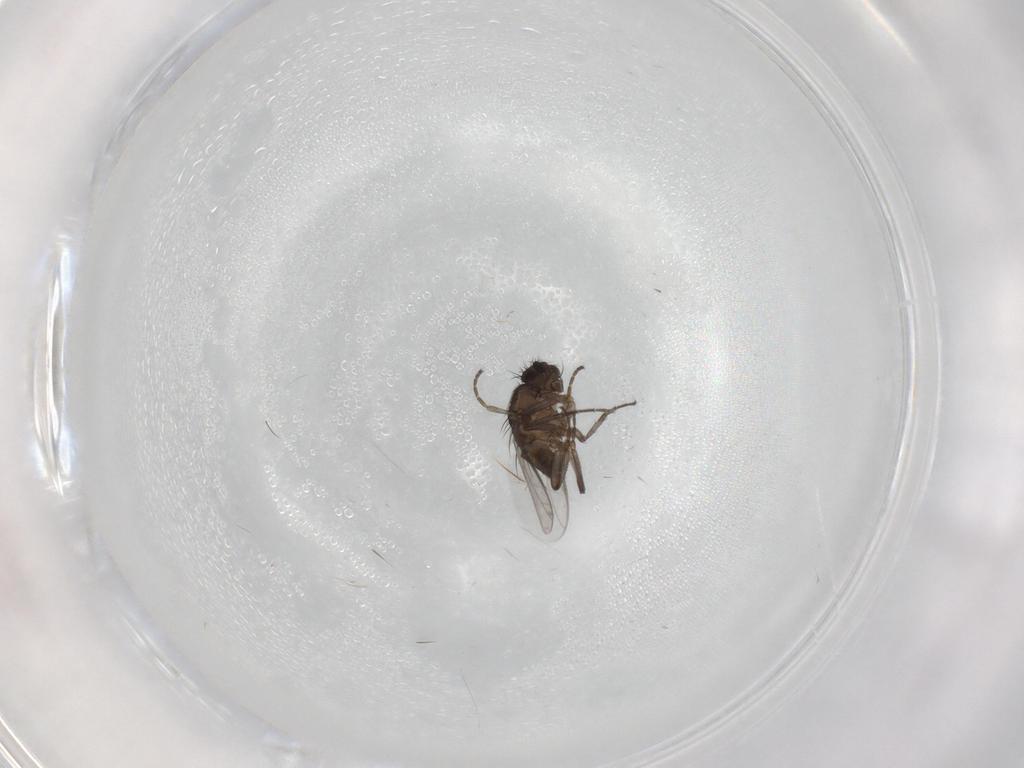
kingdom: Animalia
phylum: Arthropoda
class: Insecta
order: Diptera
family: Sphaeroceridae
